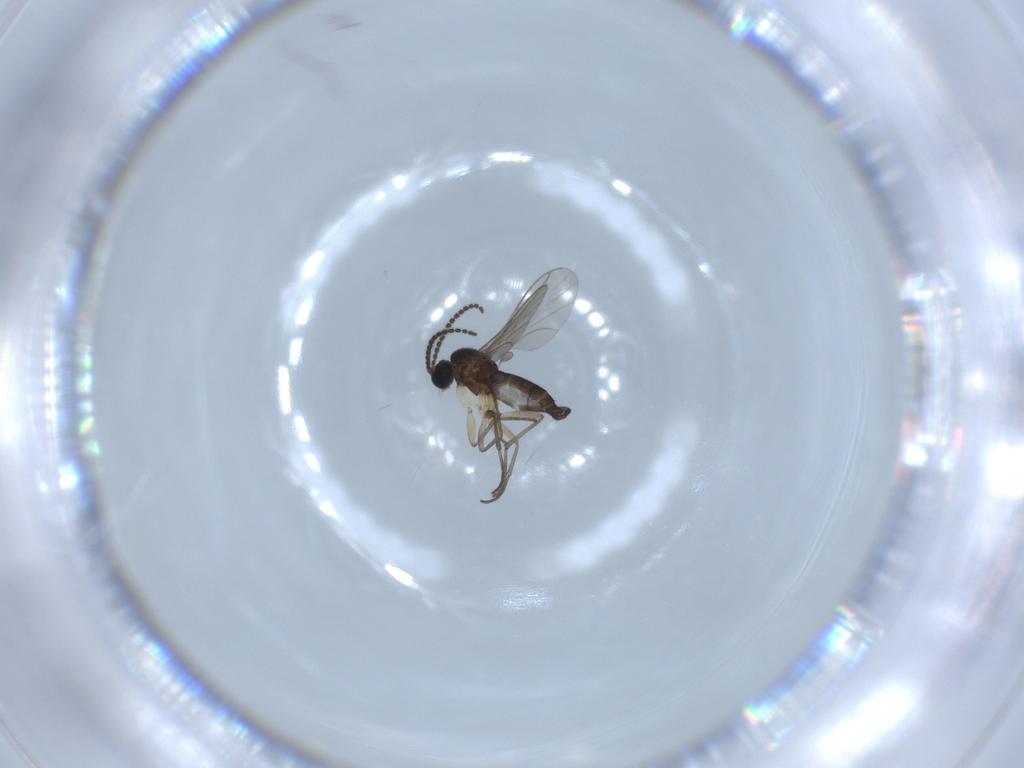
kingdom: Animalia
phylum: Arthropoda
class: Insecta
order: Diptera
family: Sciaridae
